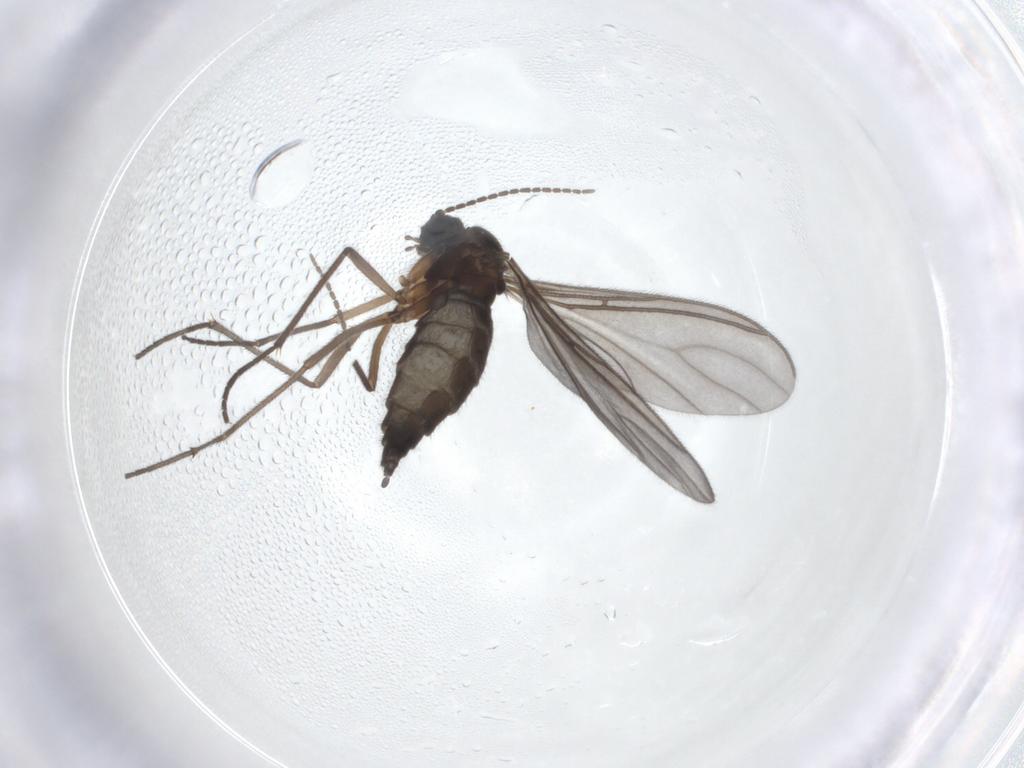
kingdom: Animalia
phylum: Arthropoda
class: Insecta
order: Diptera
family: Sciaridae
